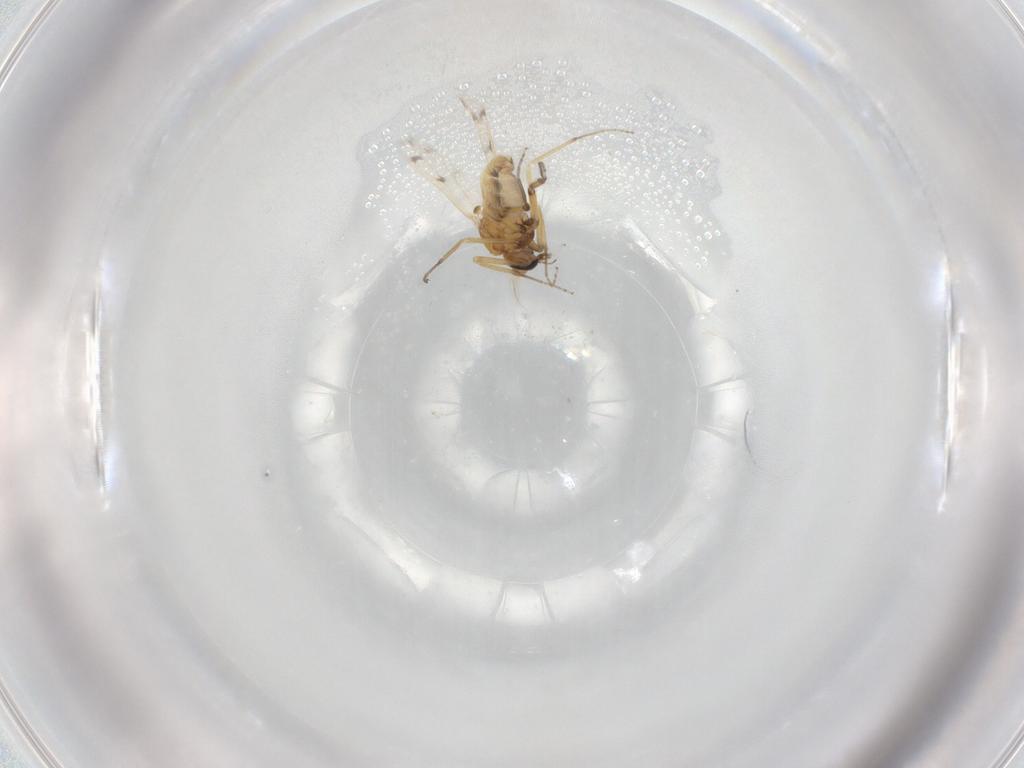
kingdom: Animalia
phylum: Arthropoda
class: Insecta
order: Diptera
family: Ceratopogonidae
